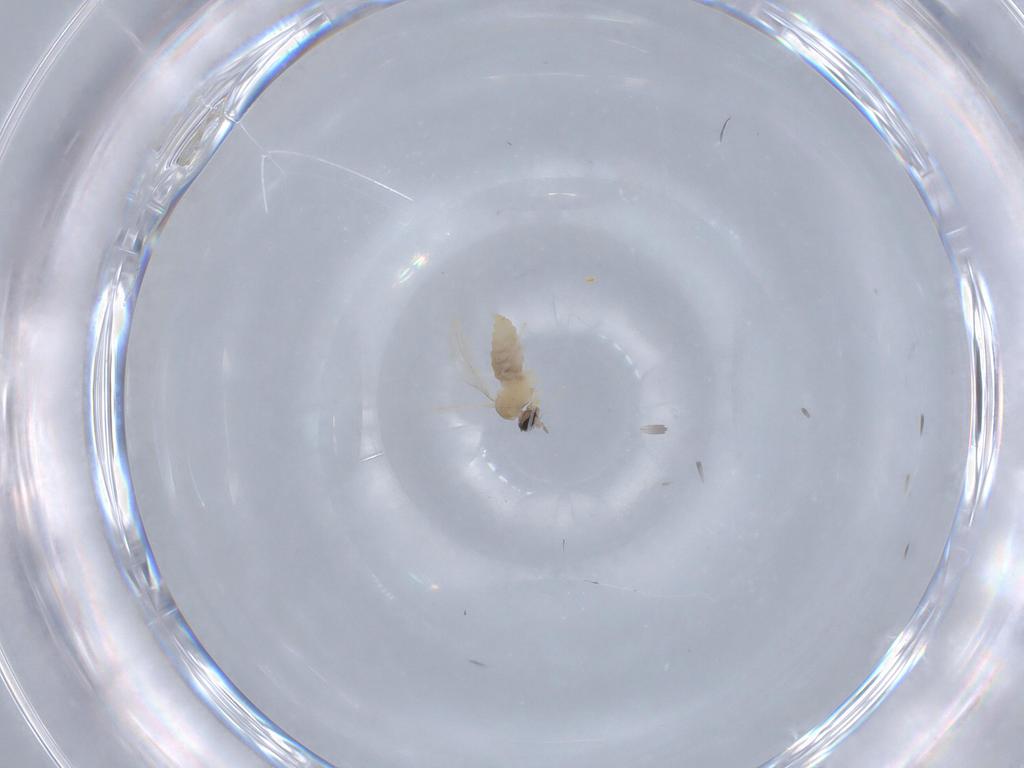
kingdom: Animalia
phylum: Arthropoda
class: Insecta
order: Diptera
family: Cecidomyiidae
